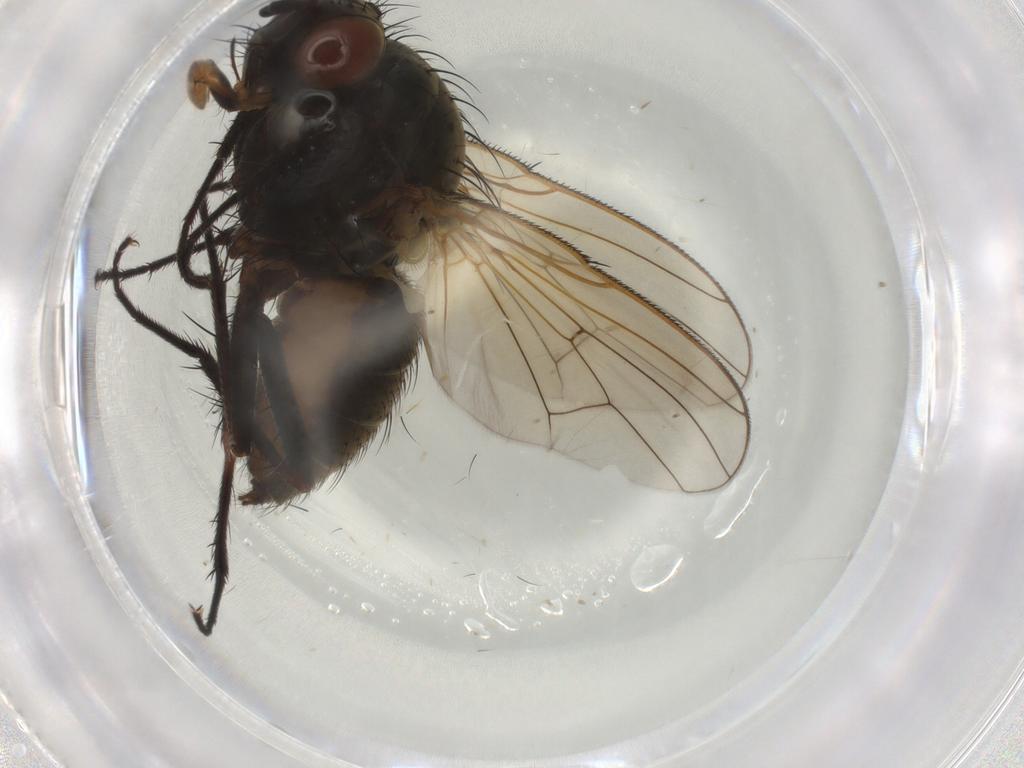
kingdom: Animalia
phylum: Arthropoda
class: Insecta
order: Diptera
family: Anthomyiidae
